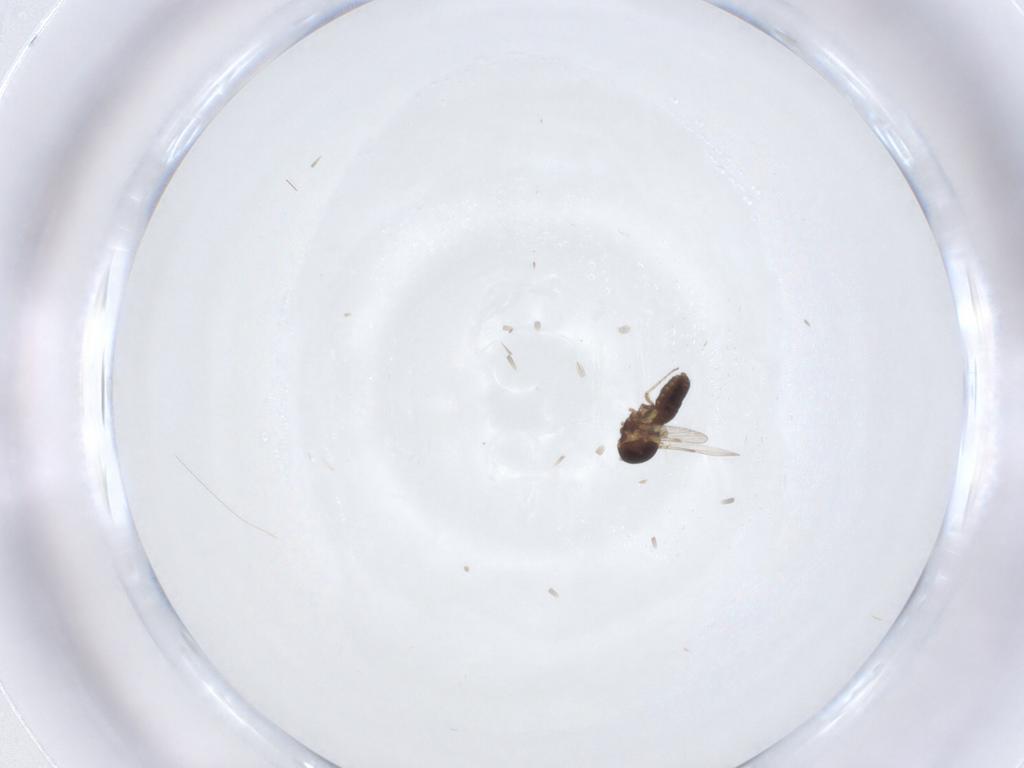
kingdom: Animalia
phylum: Arthropoda
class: Insecta
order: Diptera
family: Ceratopogonidae
